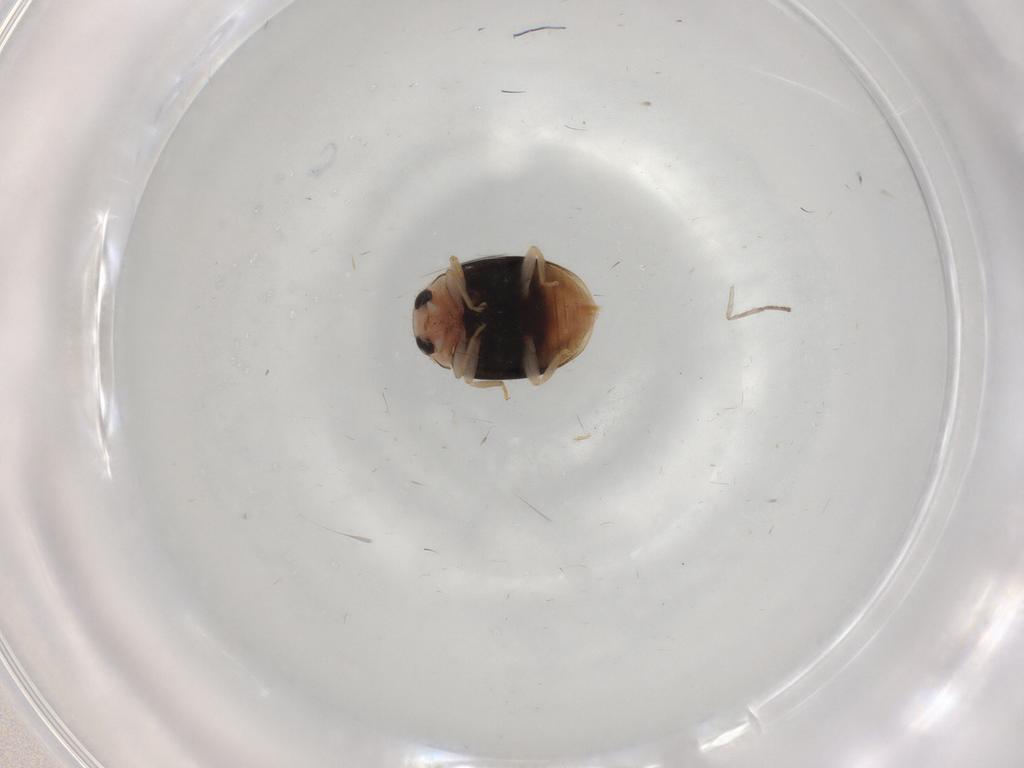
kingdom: Animalia
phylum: Arthropoda
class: Insecta
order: Coleoptera
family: Coccinellidae
